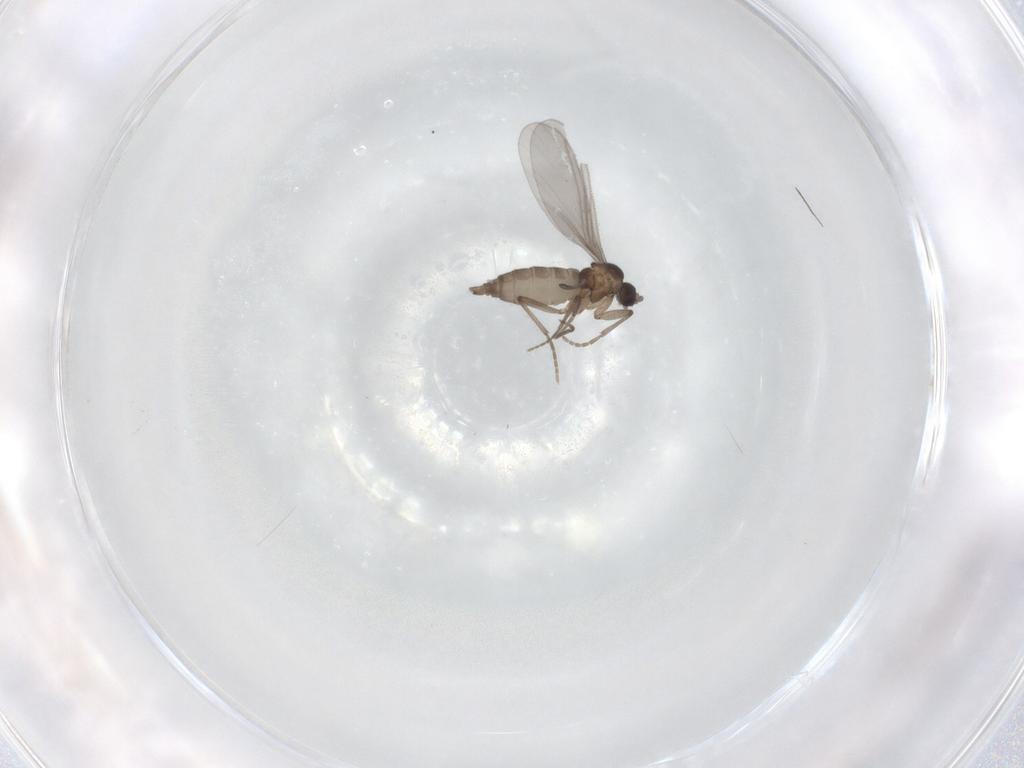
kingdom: Animalia
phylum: Arthropoda
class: Insecta
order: Diptera
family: Sciaridae
